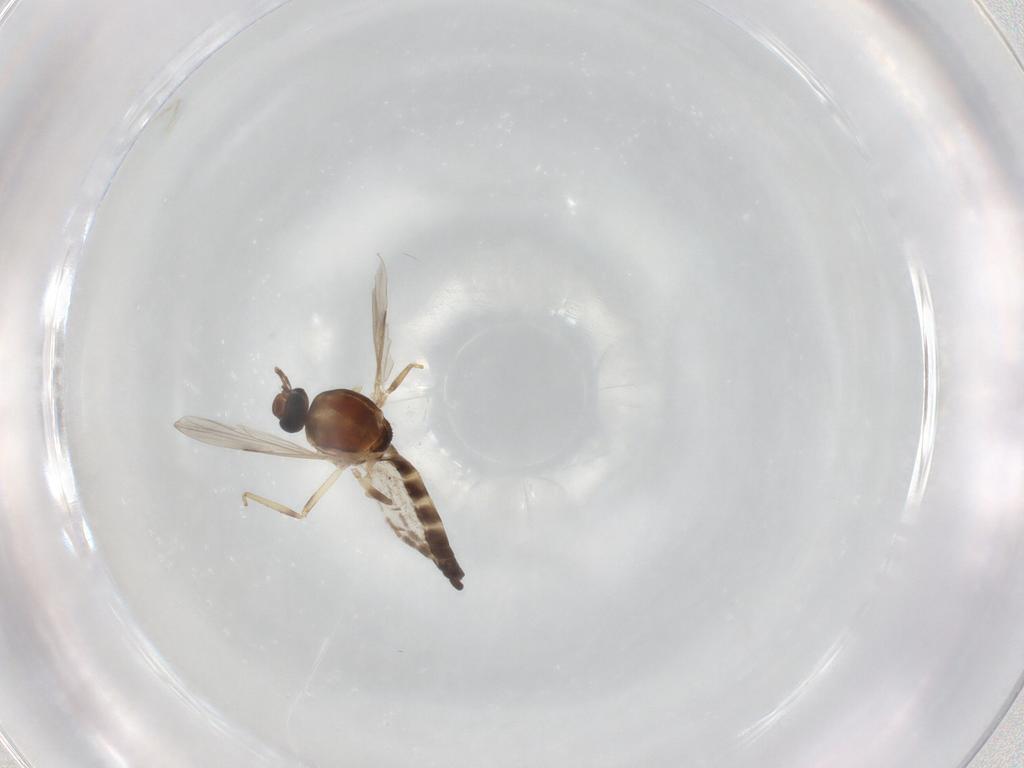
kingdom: Animalia
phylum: Arthropoda
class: Insecta
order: Diptera
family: Ceratopogonidae
